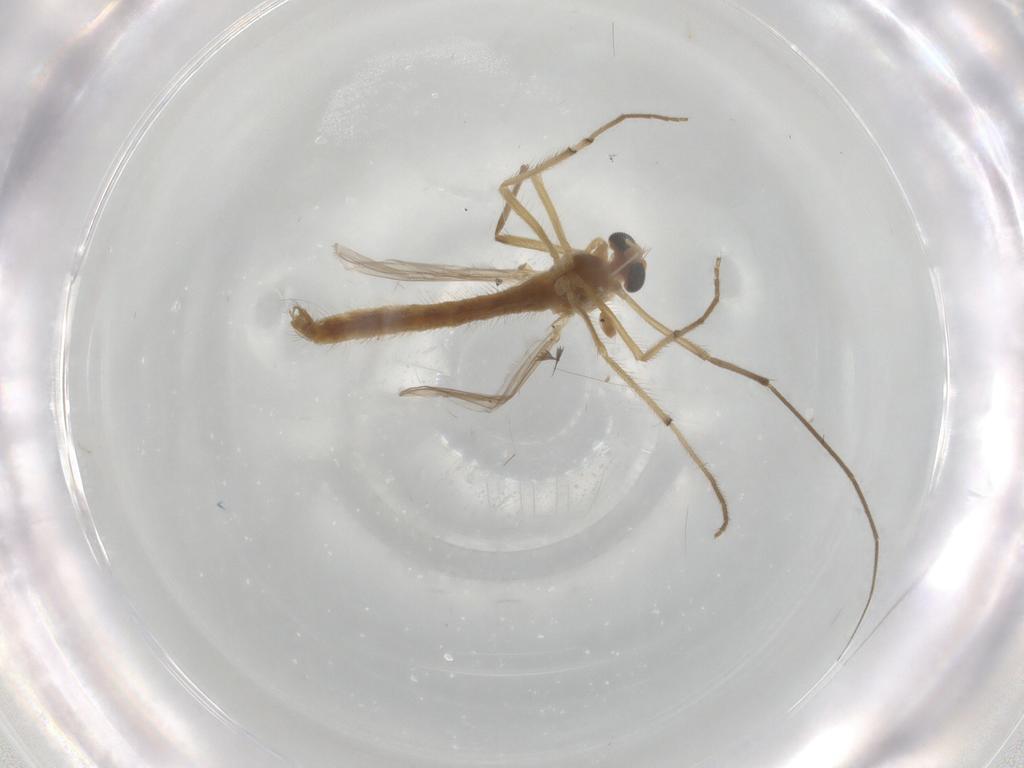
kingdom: Animalia
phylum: Arthropoda
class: Insecta
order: Diptera
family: Chironomidae
